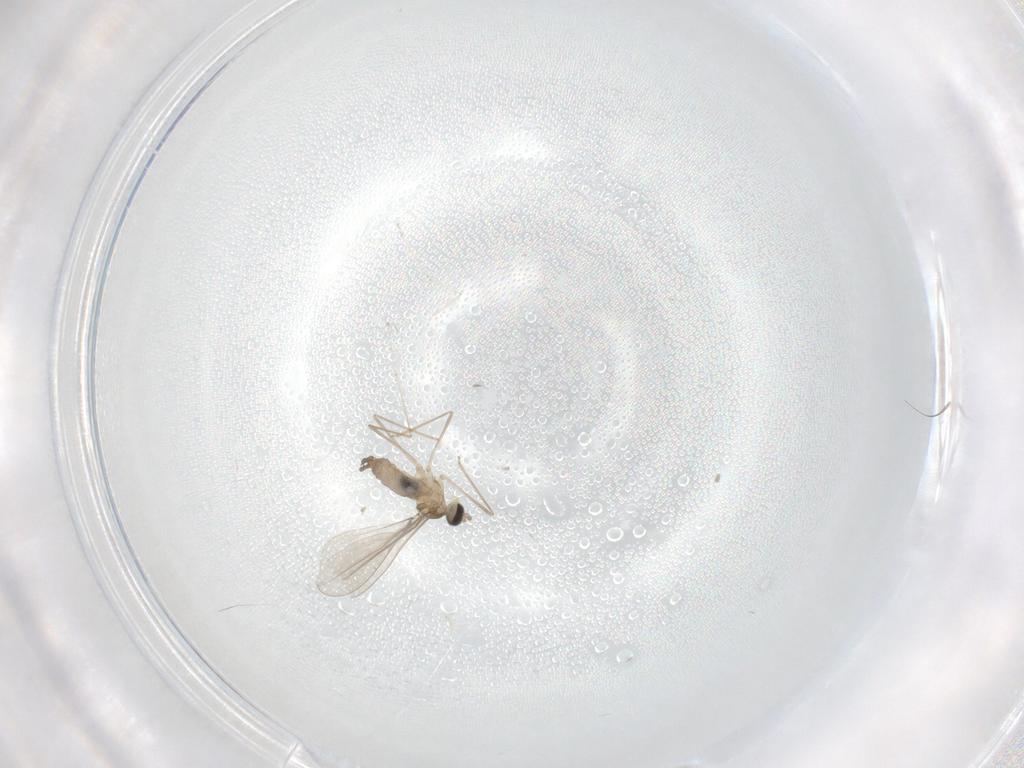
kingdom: Animalia
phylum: Arthropoda
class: Insecta
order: Diptera
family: Cecidomyiidae
